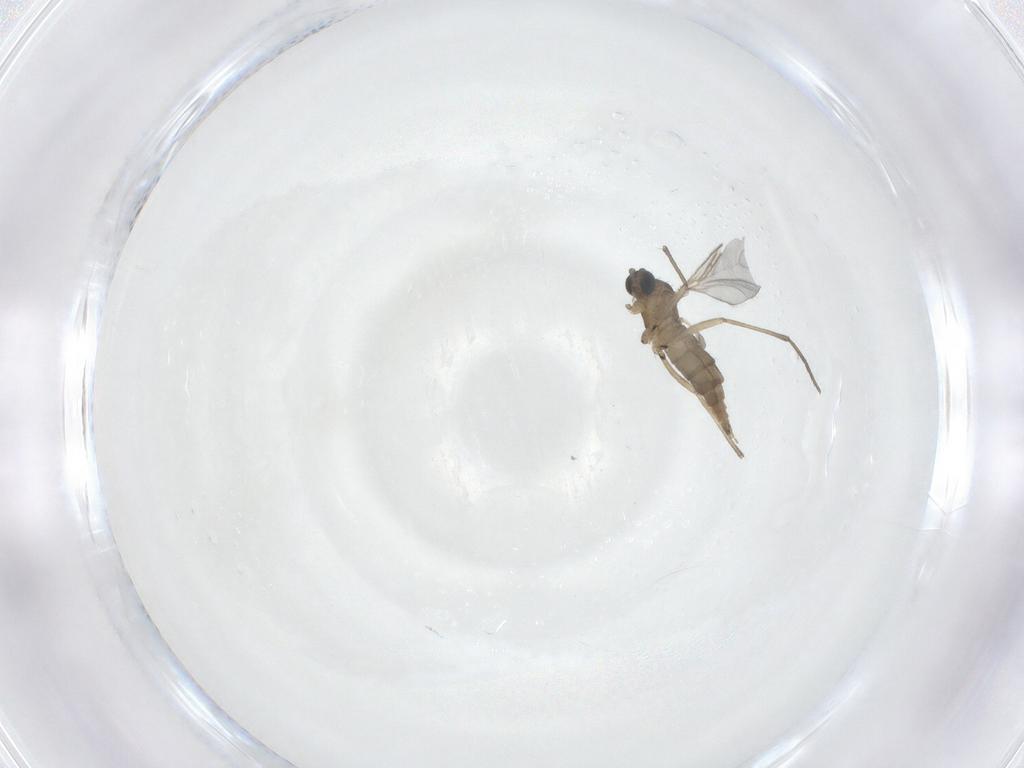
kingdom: Animalia
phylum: Arthropoda
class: Insecta
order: Diptera
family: Sciaridae
